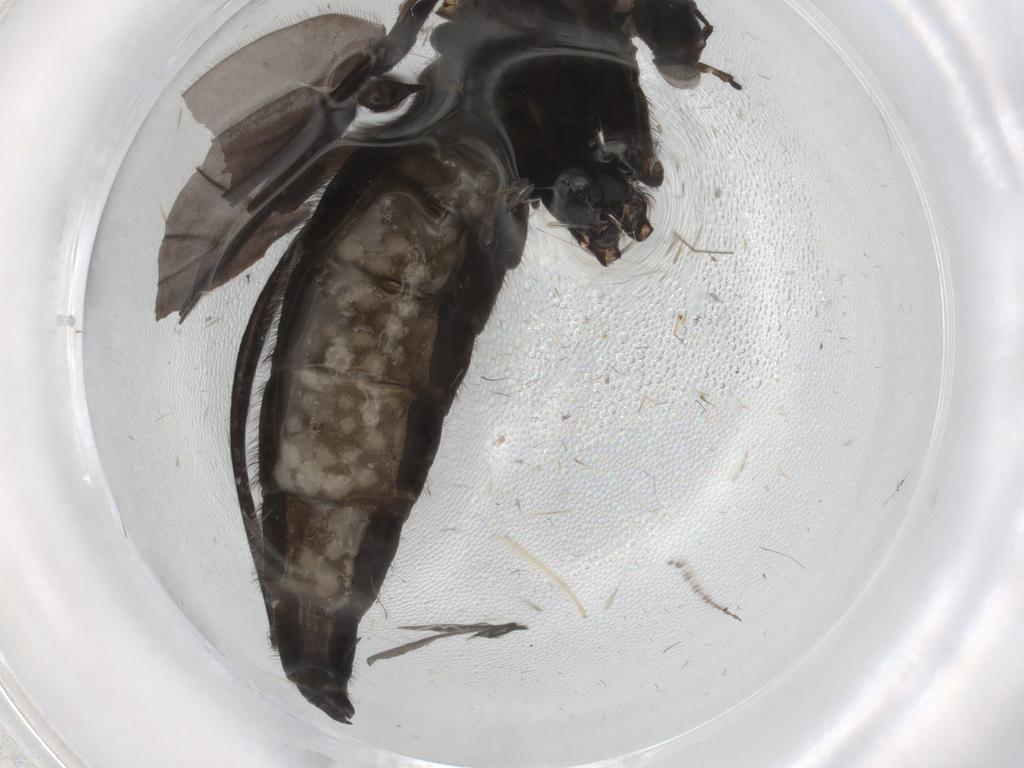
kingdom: Animalia
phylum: Arthropoda
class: Insecta
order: Diptera
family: Sciaridae
